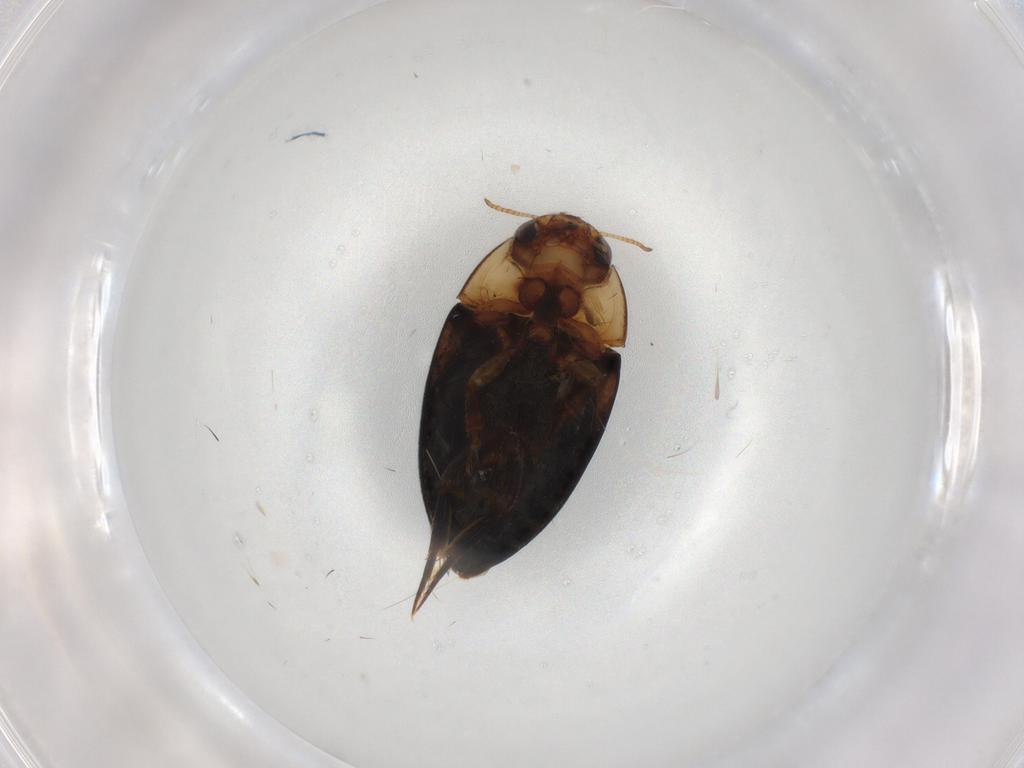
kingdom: Animalia
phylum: Arthropoda
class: Insecta
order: Coleoptera
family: Noteridae
